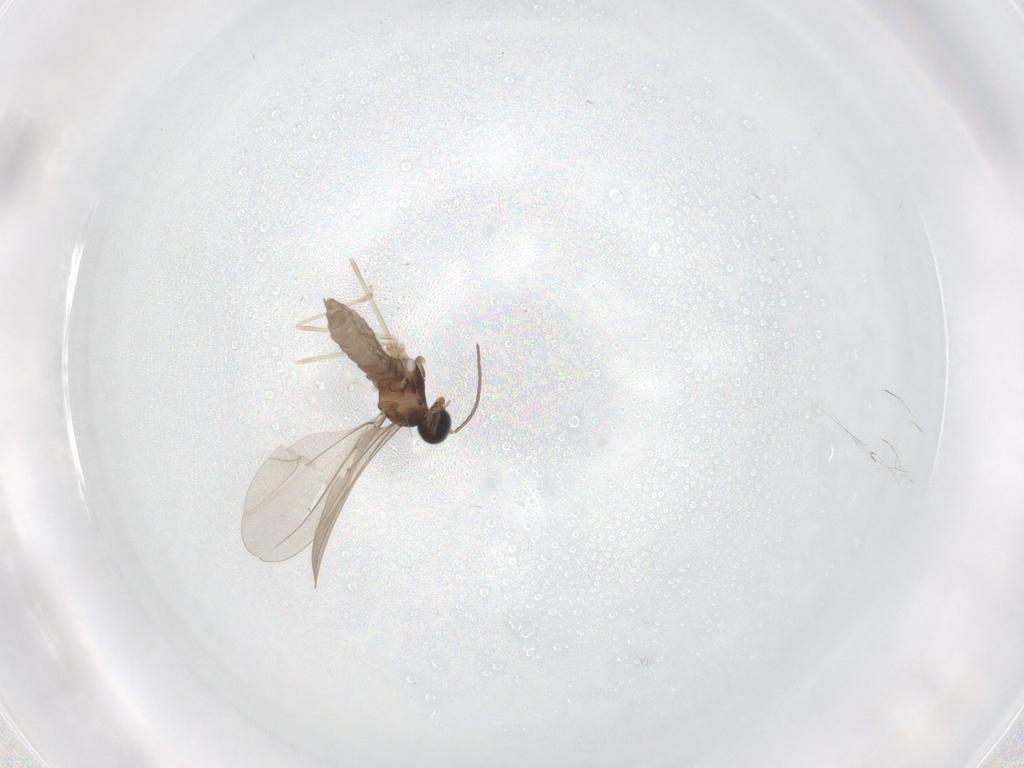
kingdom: Animalia
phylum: Arthropoda
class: Insecta
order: Diptera
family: Cecidomyiidae
